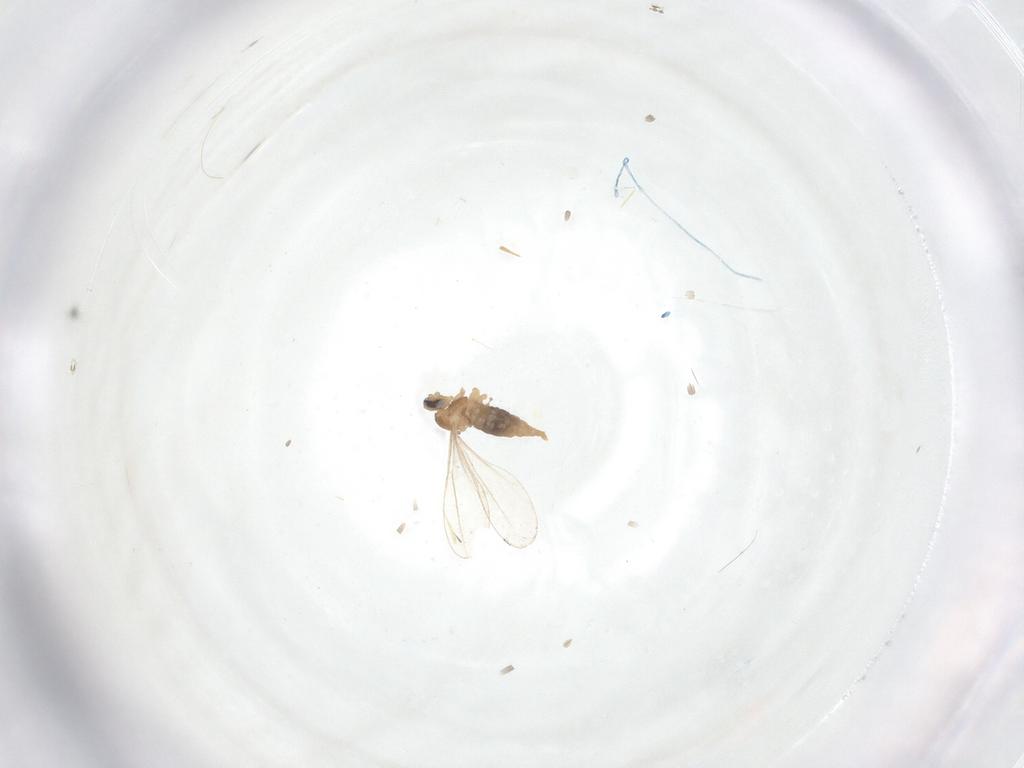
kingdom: Animalia
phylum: Arthropoda
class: Insecta
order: Diptera
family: Ceratopogonidae
